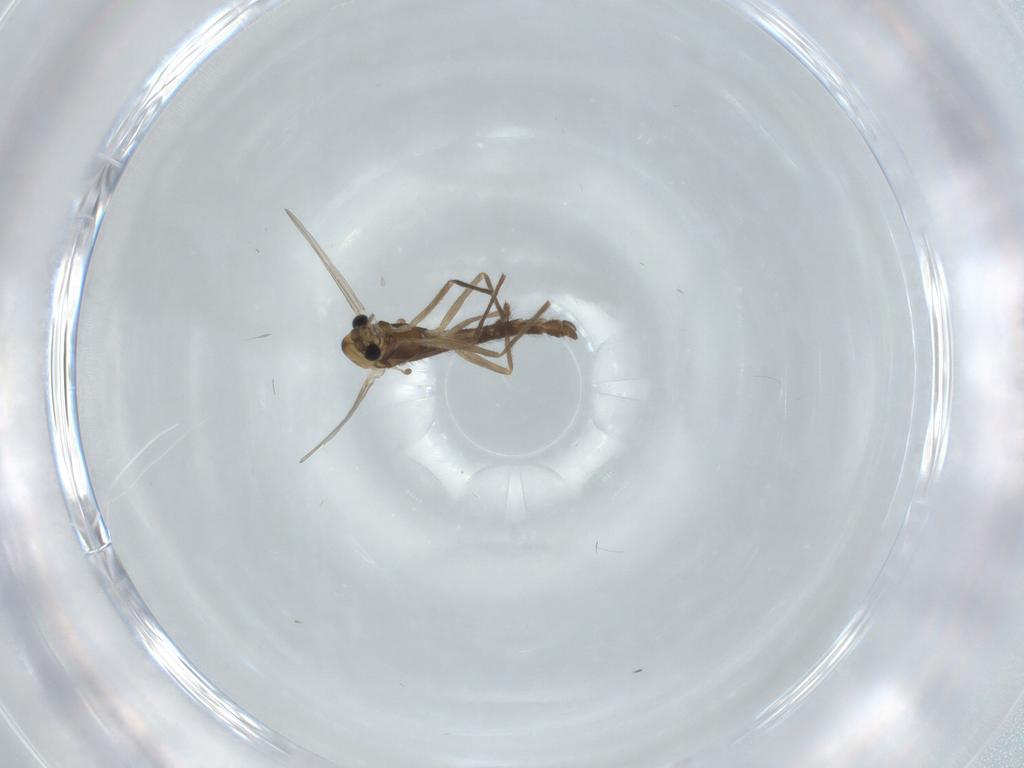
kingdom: Animalia
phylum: Arthropoda
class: Insecta
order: Diptera
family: Chironomidae
